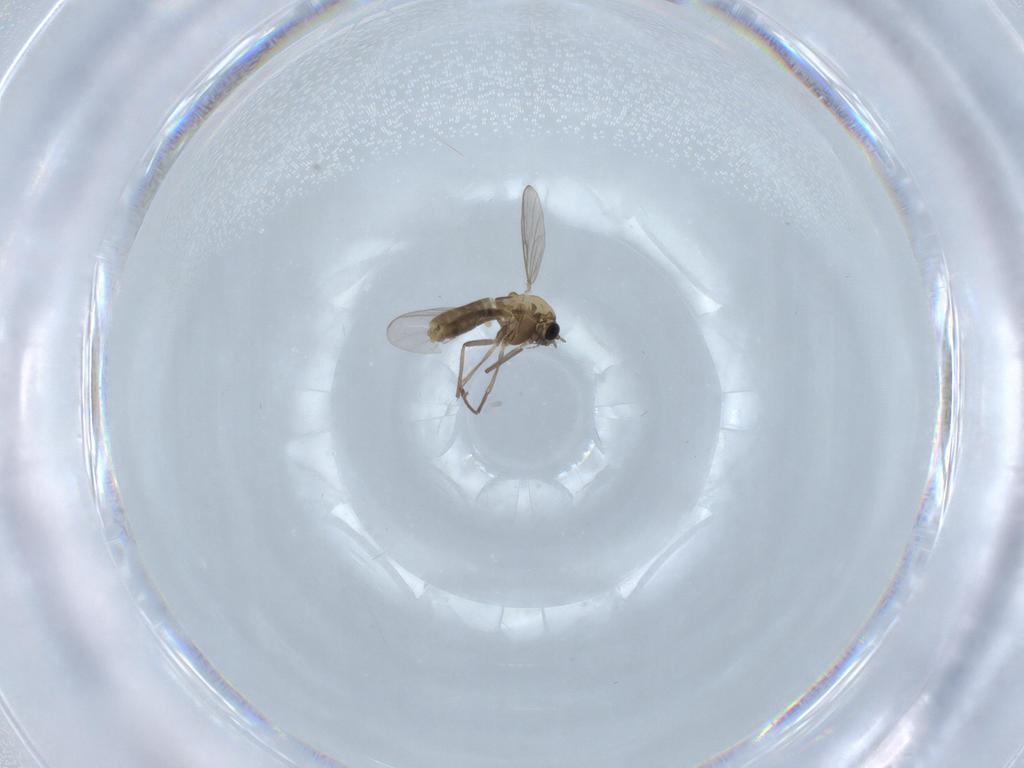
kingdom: Animalia
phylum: Arthropoda
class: Insecta
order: Diptera
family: Chironomidae
